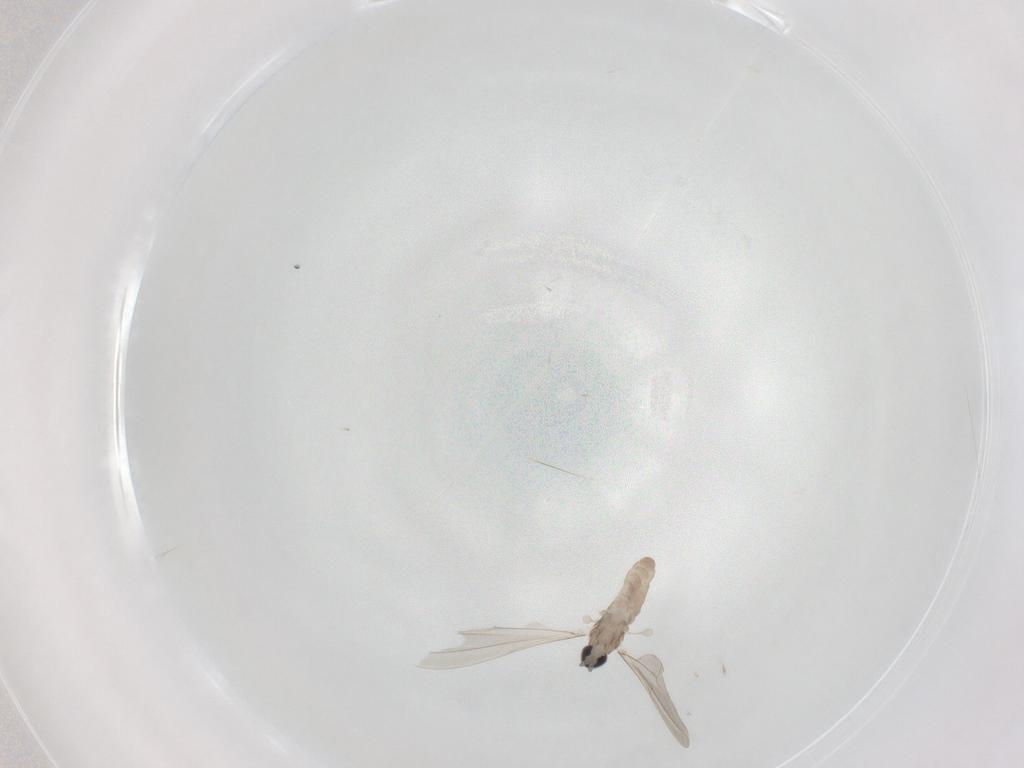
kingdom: Animalia
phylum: Arthropoda
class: Insecta
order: Diptera
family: Cecidomyiidae
